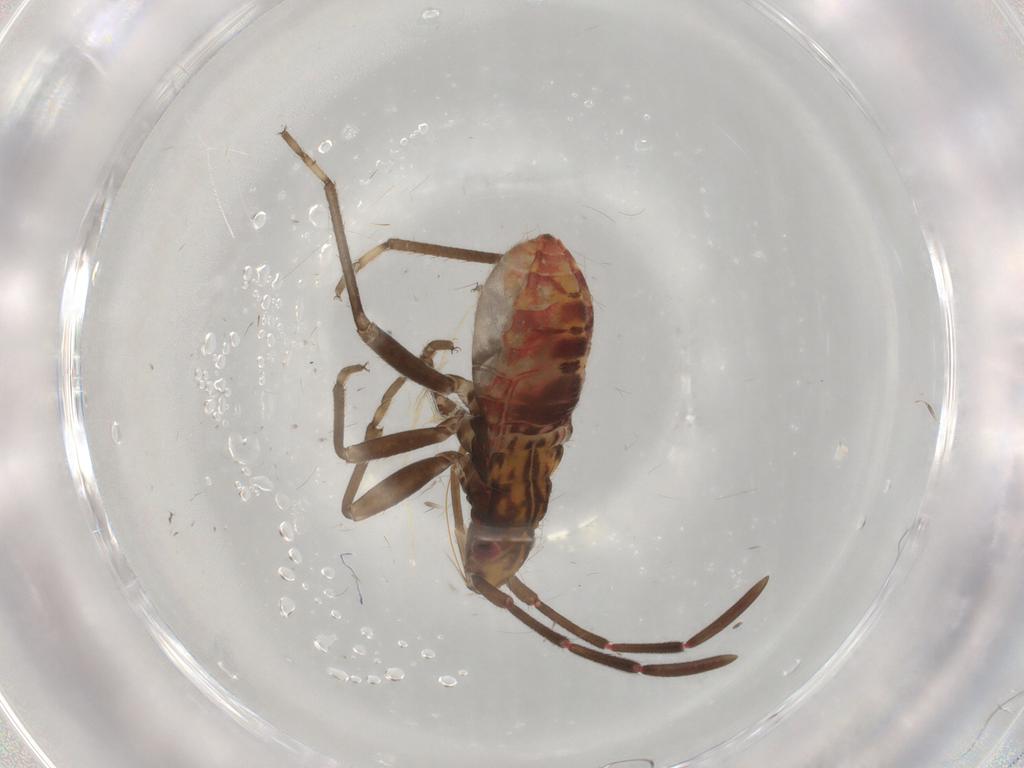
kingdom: Animalia
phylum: Arthropoda
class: Insecta
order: Hemiptera
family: Rhyparochromidae
